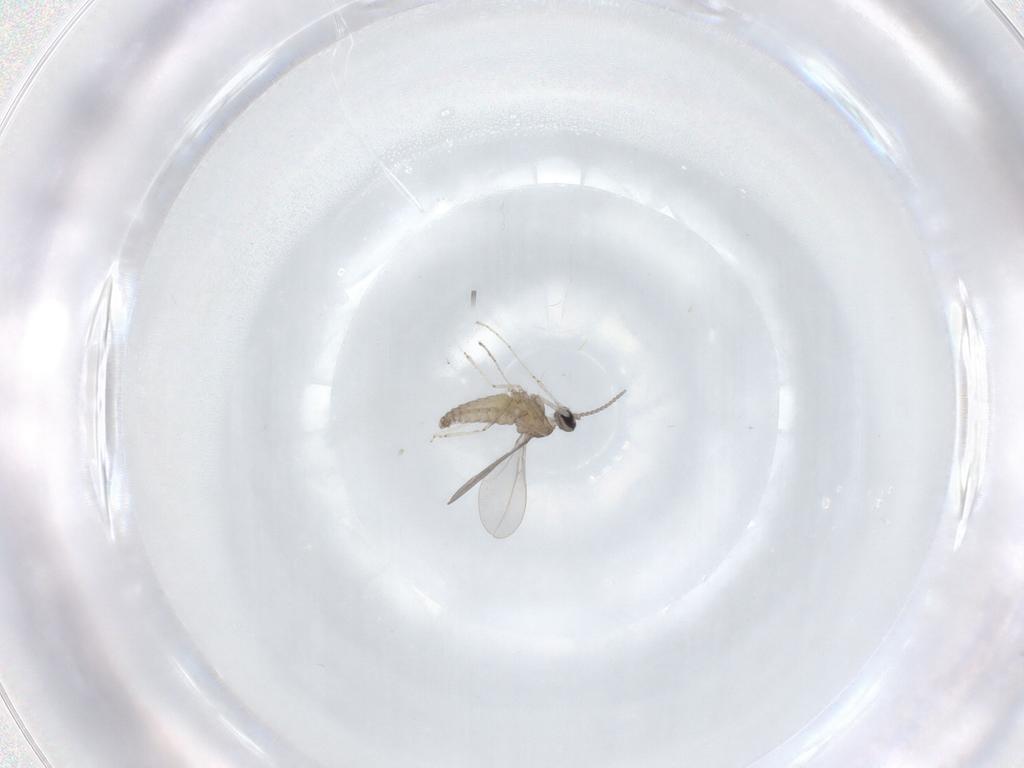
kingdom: Animalia
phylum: Arthropoda
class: Insecta
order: Diptera
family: Cecidomyiidae
